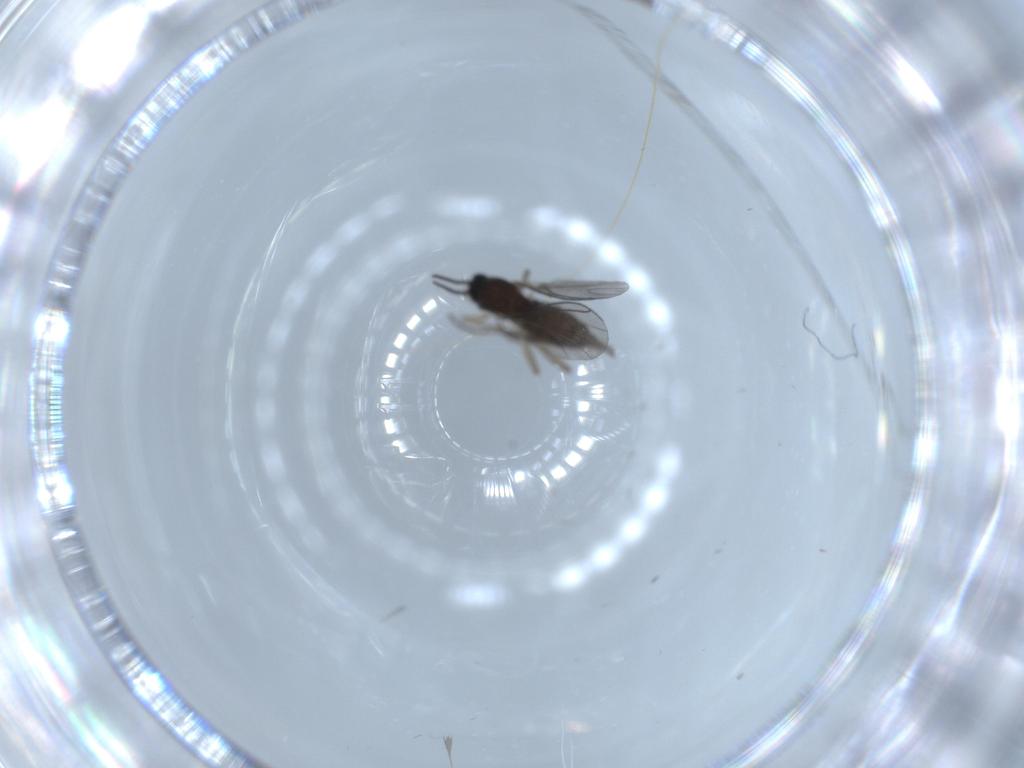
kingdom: Animalia
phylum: Arthropoda
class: Insecta
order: Diptera
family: Sciaridae
